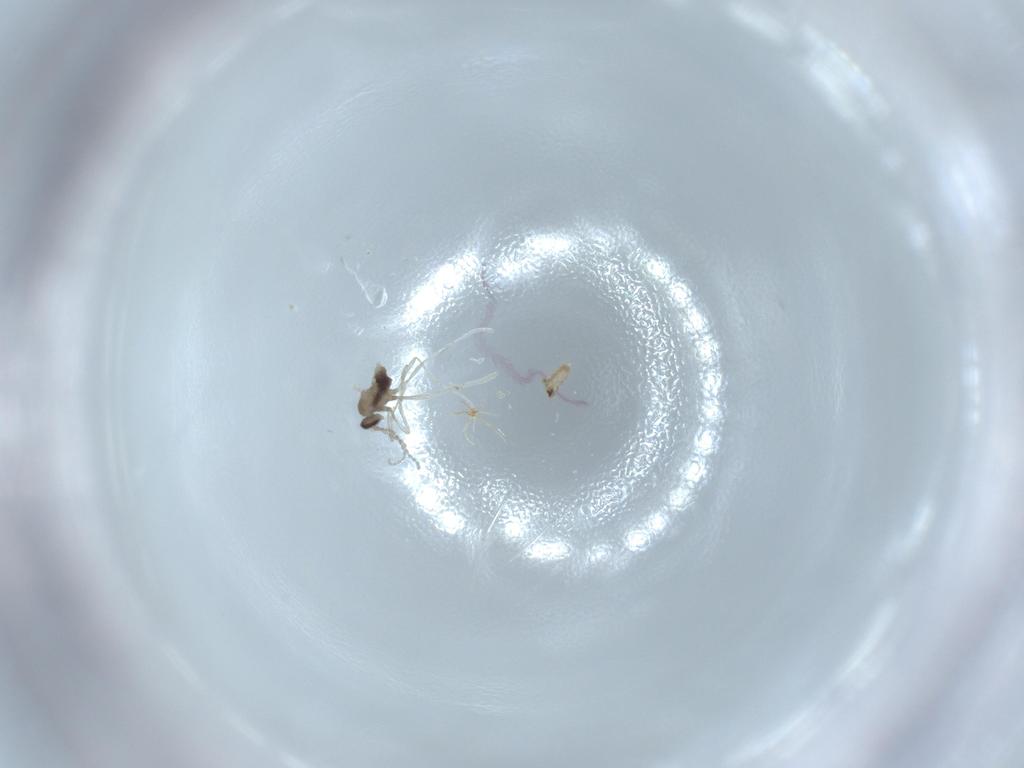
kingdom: Animalia
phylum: Arthropoda
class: Insecta
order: Diptera
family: Cecidomyiidae
